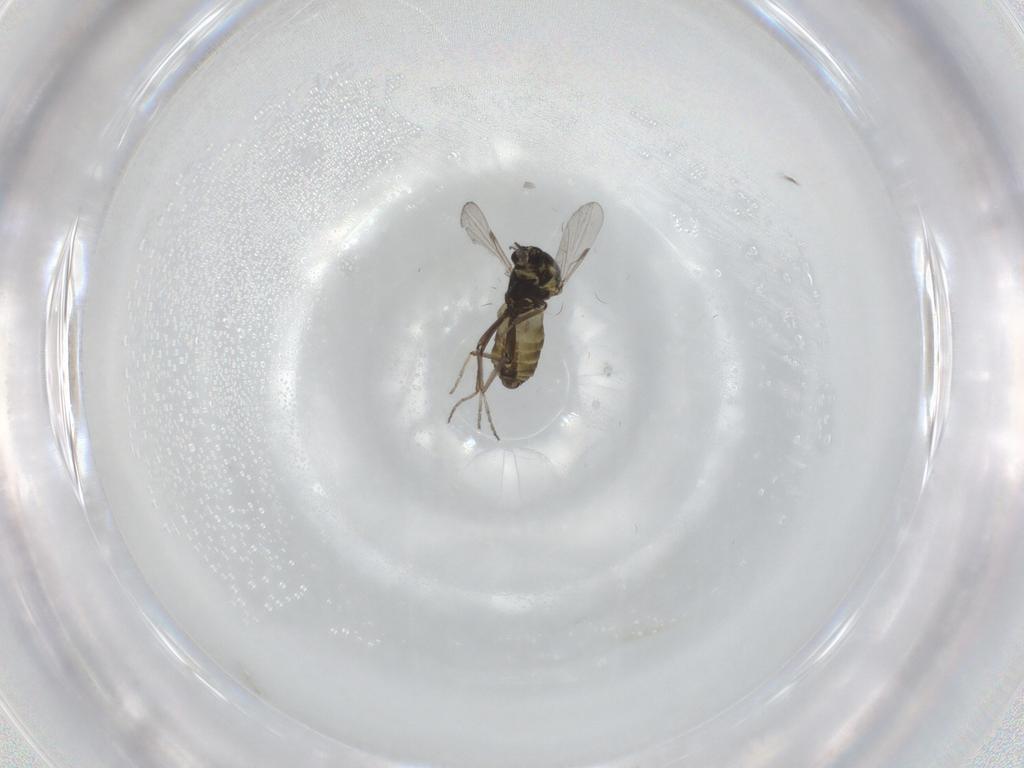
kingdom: Animalia
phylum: Arthropoda
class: Insecta
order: Diptera
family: Ceratopogonidae
